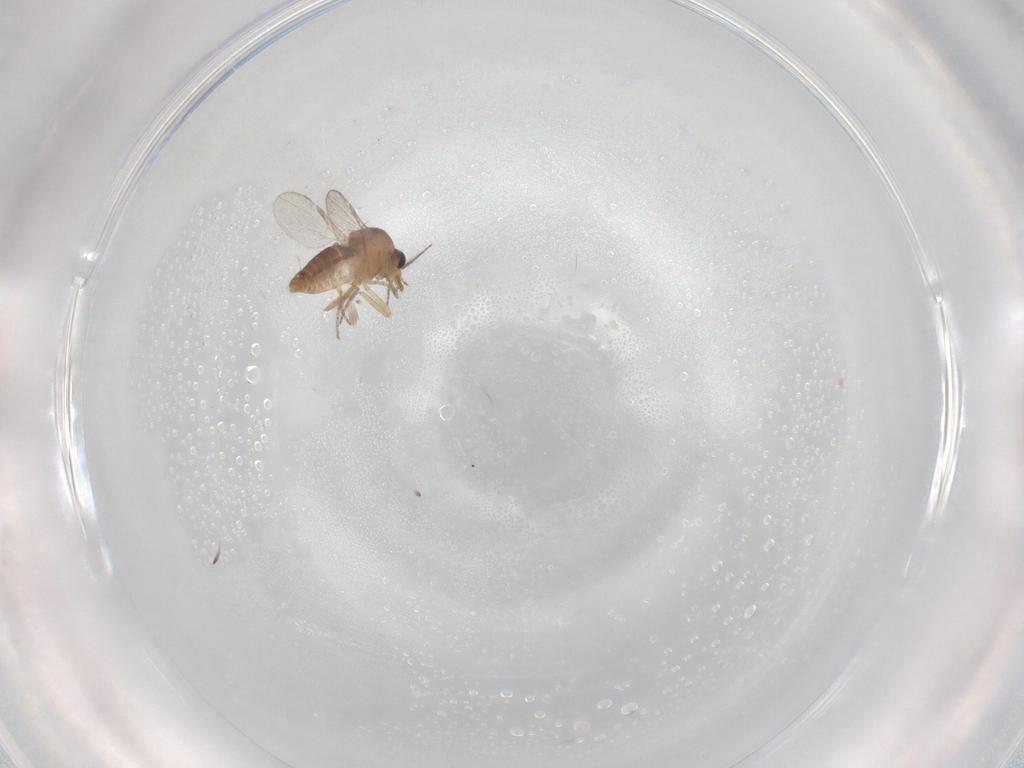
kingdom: Animalia
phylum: Arthropoda
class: Insecta
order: Diptera
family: Ceratopogonidae
